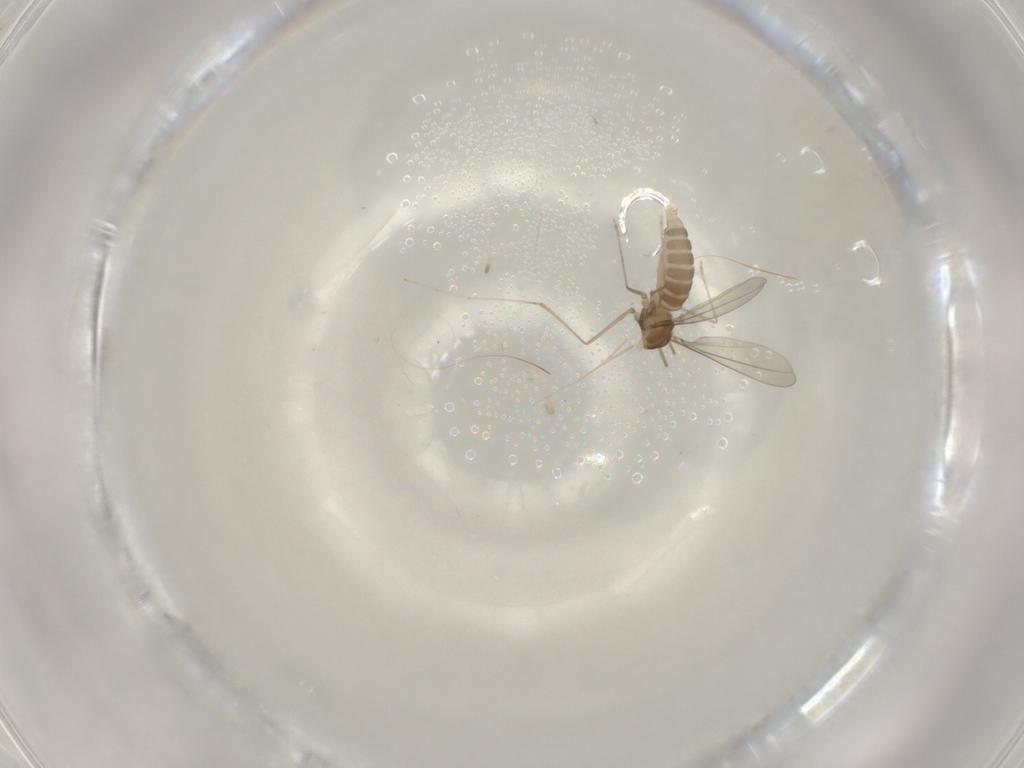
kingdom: Animalia
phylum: Arthropoda
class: Insecta
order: Diptera
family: Cecidomyiidae
